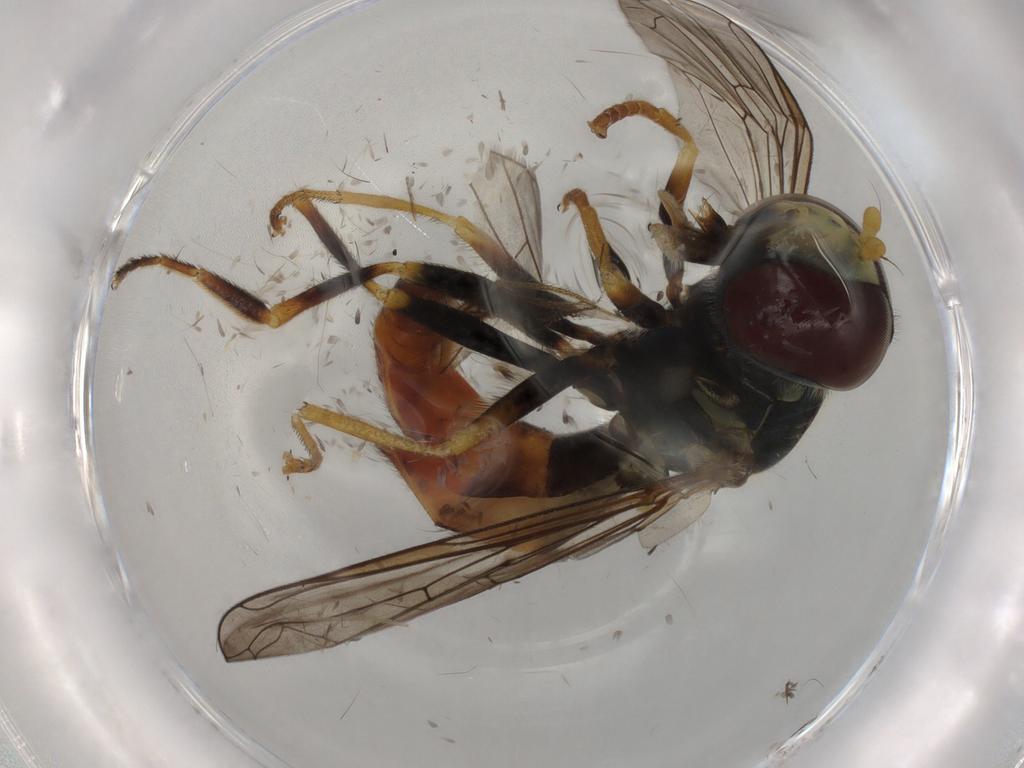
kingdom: Animalia
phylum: Arthropoda
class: Insecta
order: Diptera
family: Syrphidae
